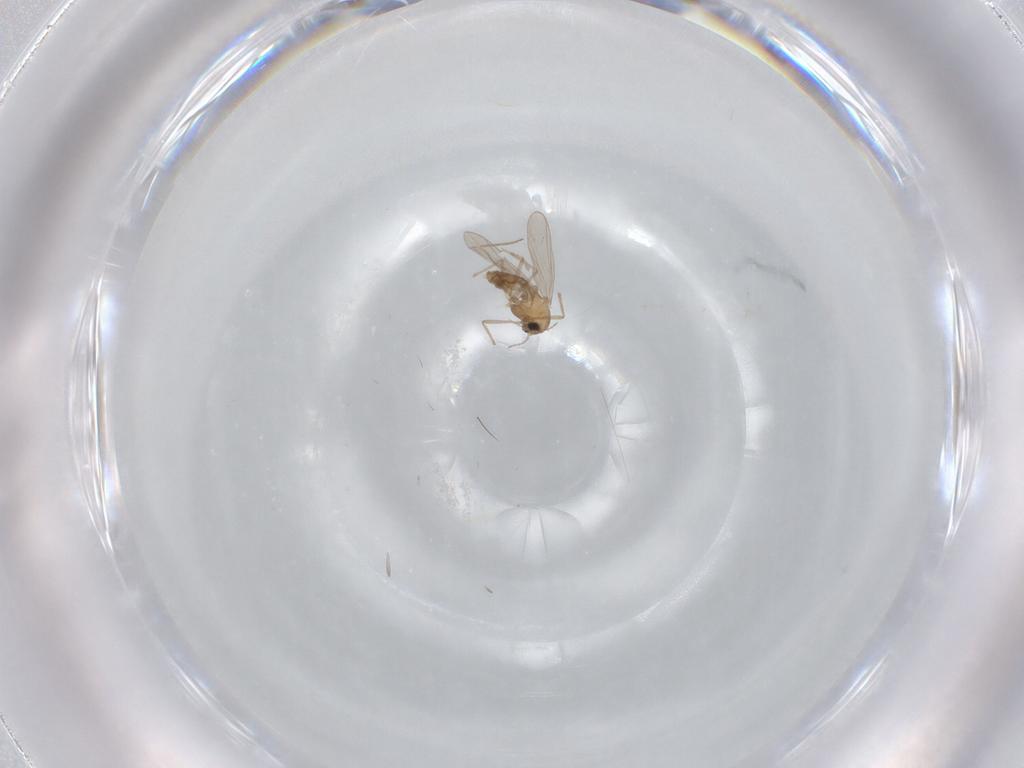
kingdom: Animalia
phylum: Arthropoda
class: Insecta
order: Diptera
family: Chironomidae
